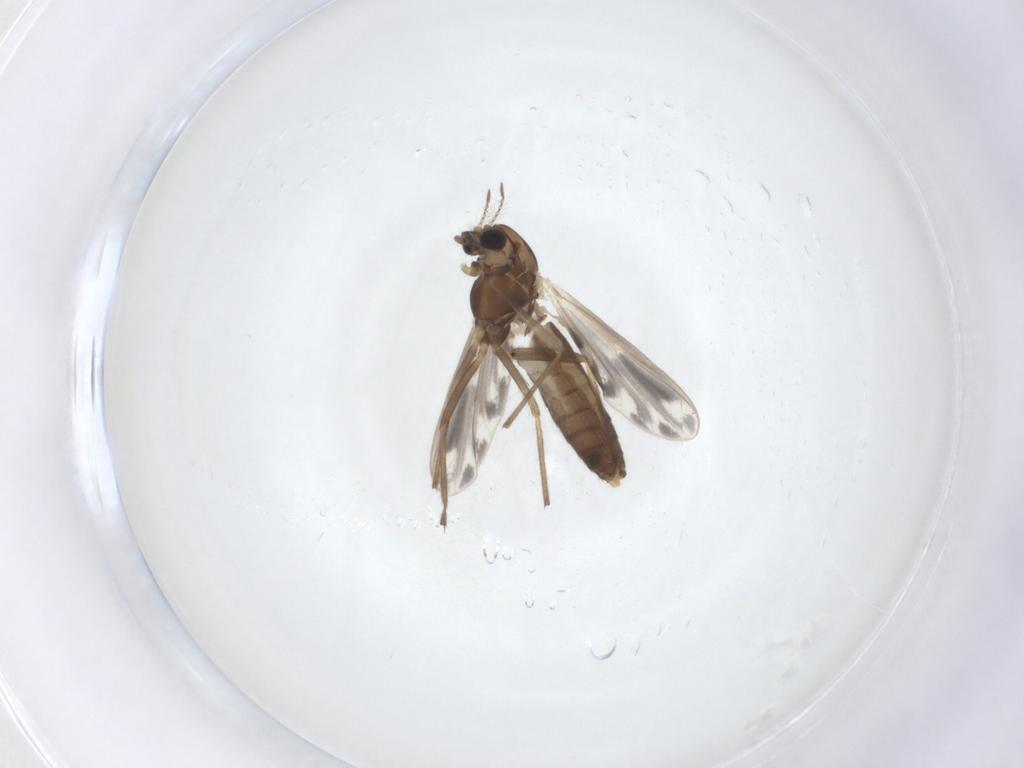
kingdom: Animalia
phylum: Arthropoda
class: Insecta
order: Diptera
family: Chironomidae
